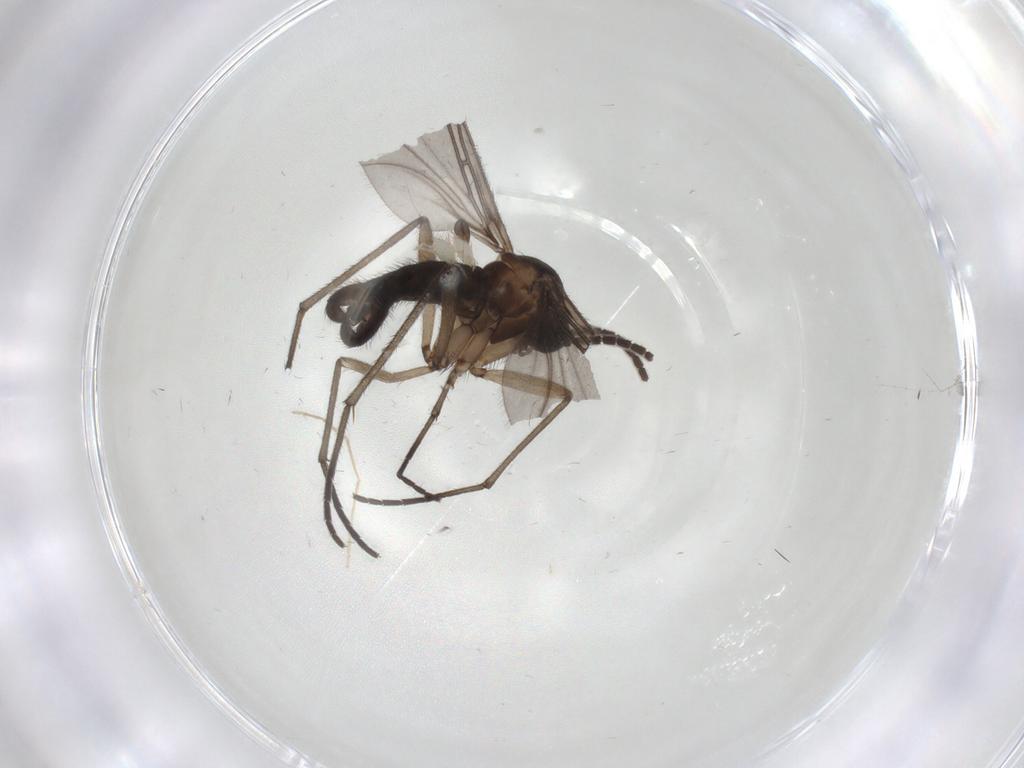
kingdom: Animalia
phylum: Arthropoda
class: Insecta
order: Diptera
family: Sciaridae
